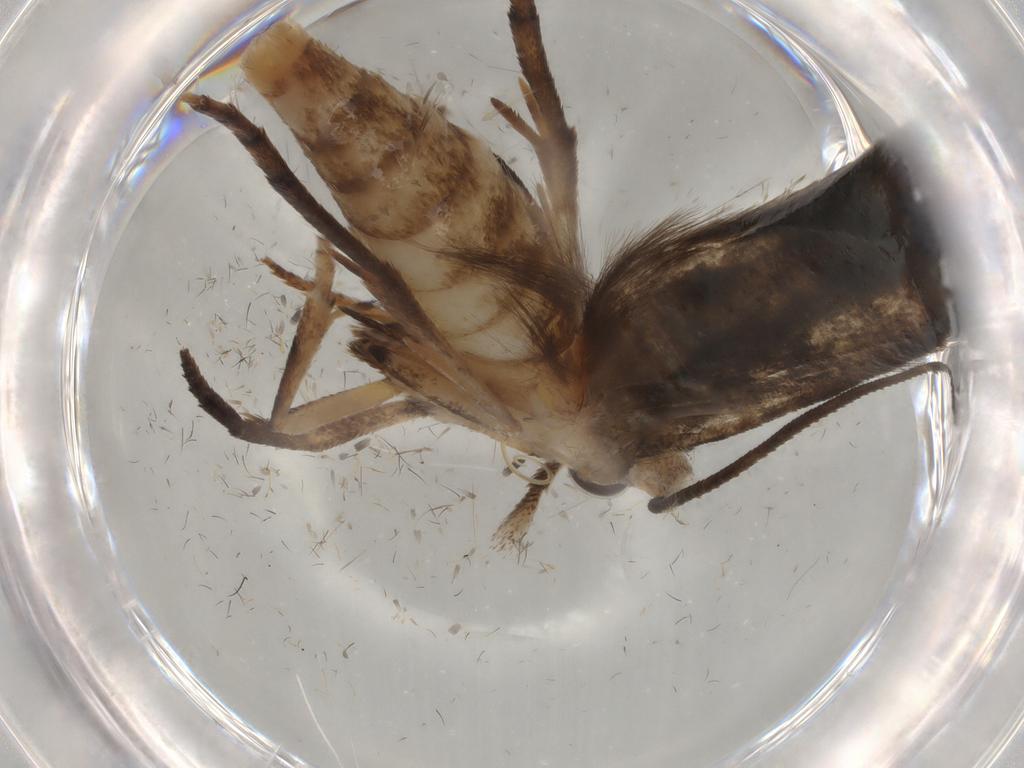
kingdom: Animalia
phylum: Arthropoda
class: Insecta
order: Lepidoptera
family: Yponomeutidae
